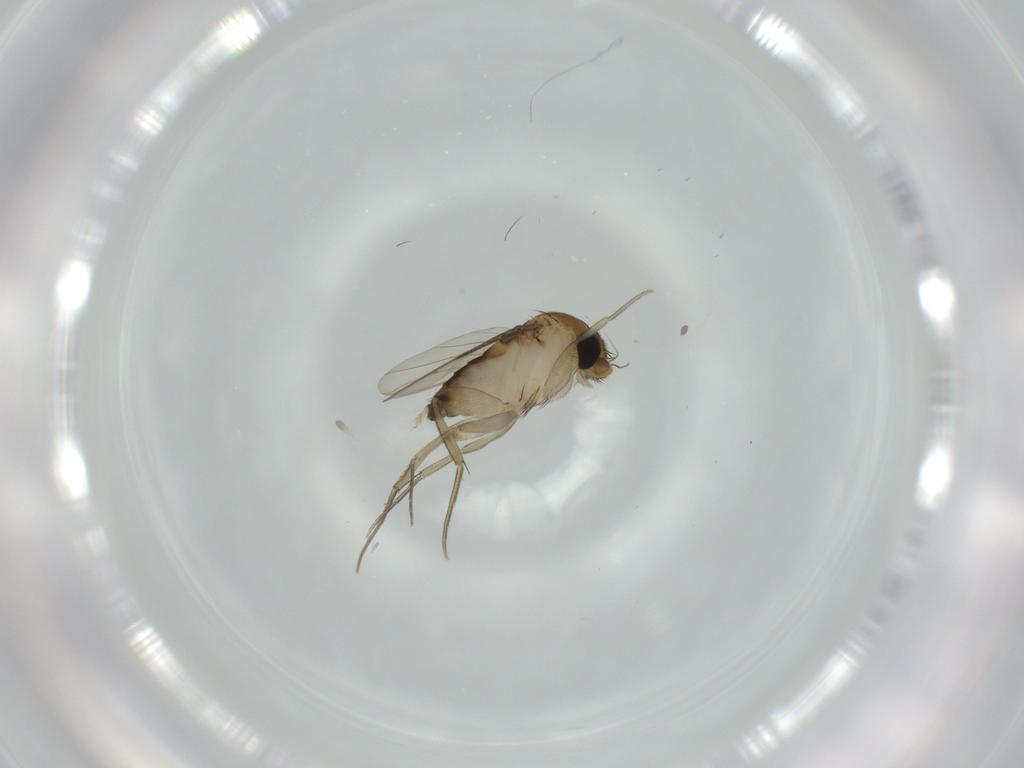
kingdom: Animalia
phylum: Arthropoda
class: Insecta
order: Diptera
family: Phoridae
